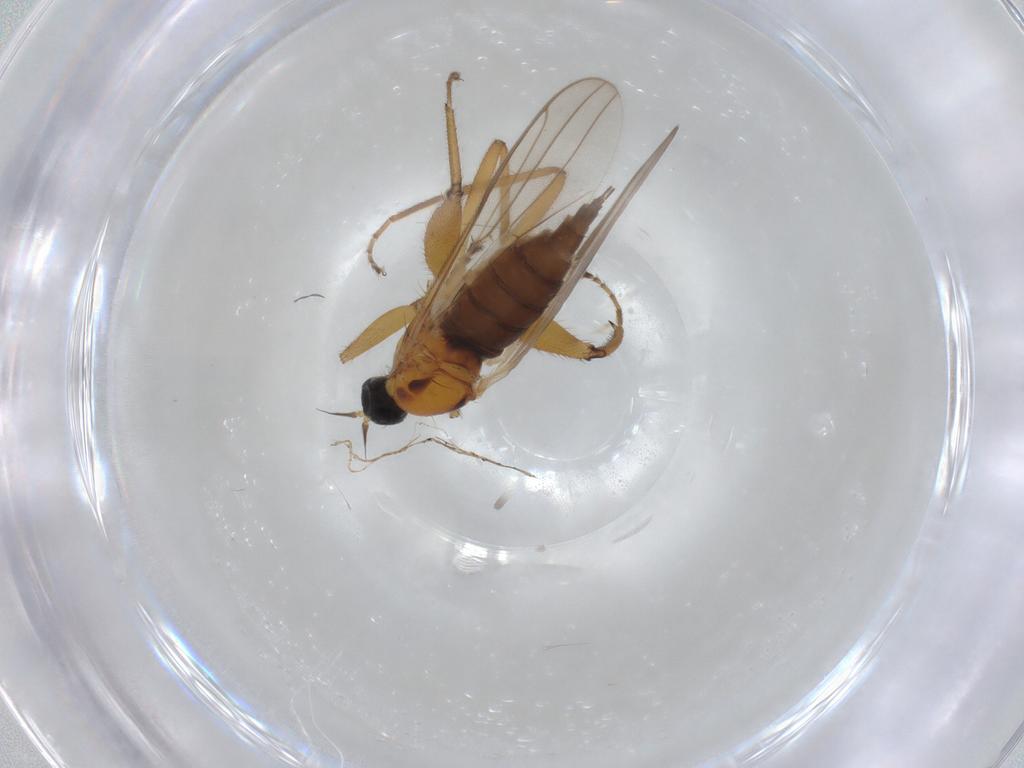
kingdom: Animalia
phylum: Arthropoda
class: Insecta
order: Diptera
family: Hybotidae
